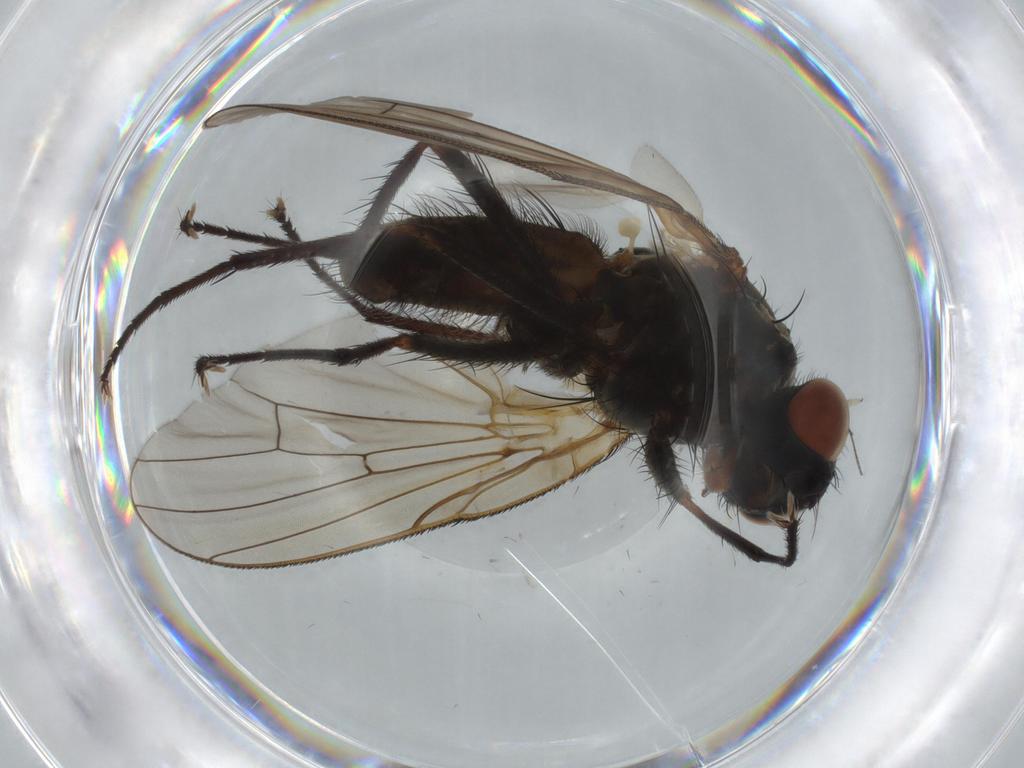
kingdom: Animalia
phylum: Arthropoda
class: Insecta
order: Diptera
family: Anthomyiidae
